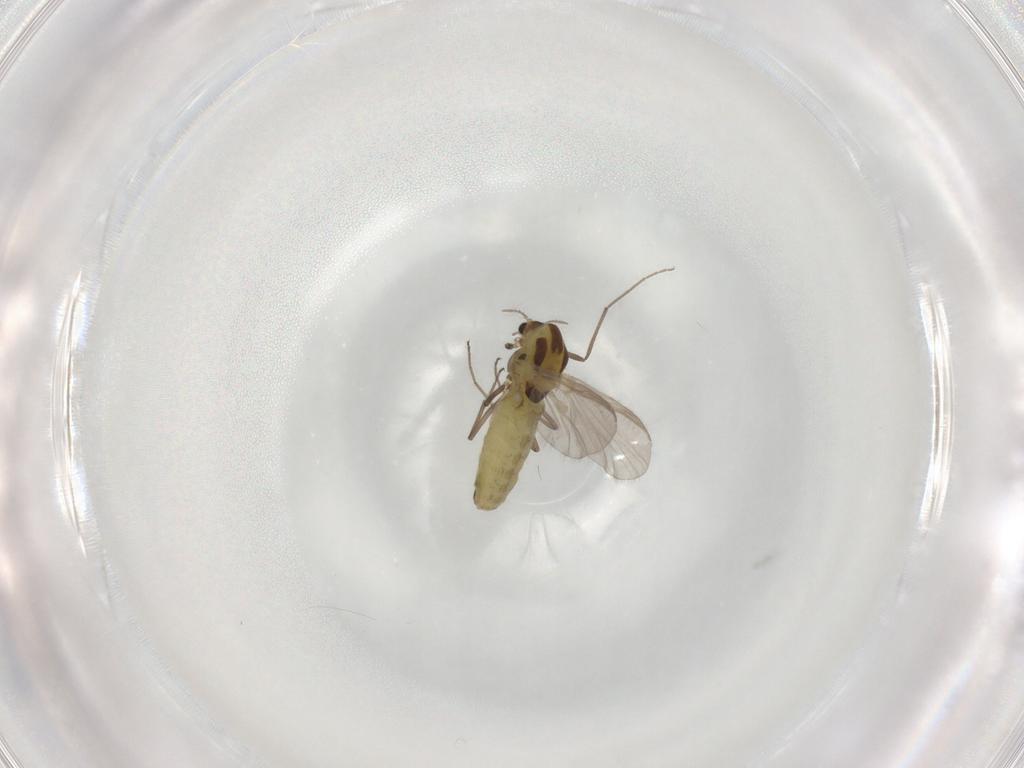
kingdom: Animalia
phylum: Arthropoda
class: Insecta
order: Diptera
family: Chironomidae
